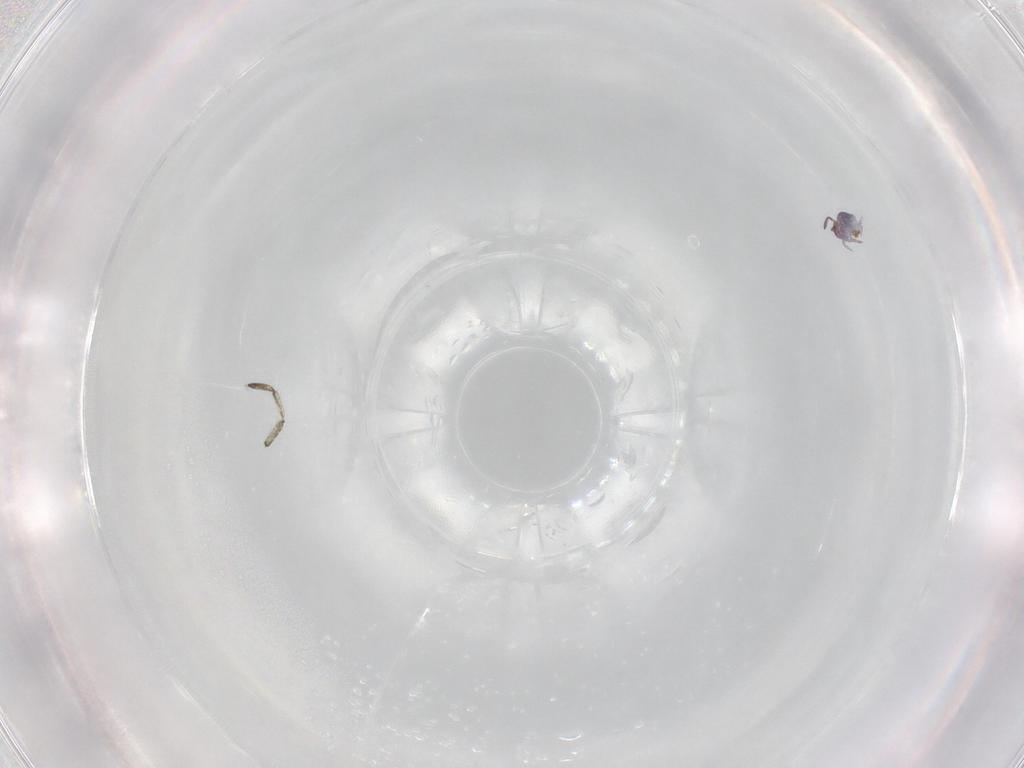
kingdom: Animalia
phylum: Arthropoda
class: Collembola
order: Symphypleona
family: Bourletiellidae
